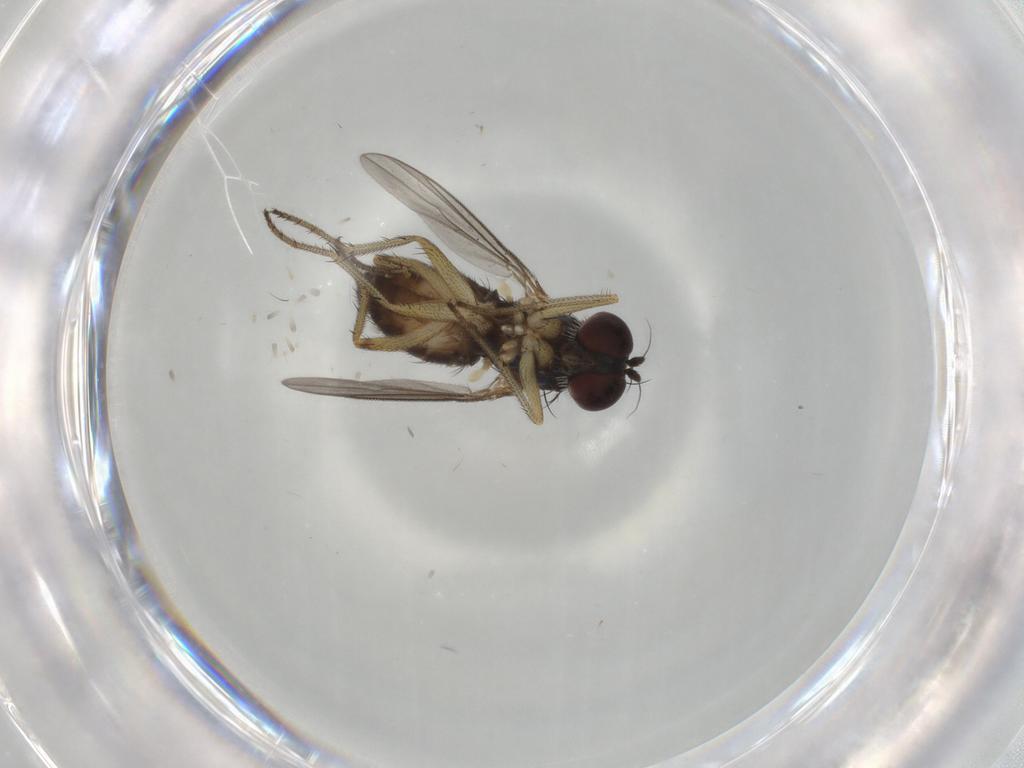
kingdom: Animalia
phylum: Arthropoda
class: Insecta
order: Diptera
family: Dolichopodidae
